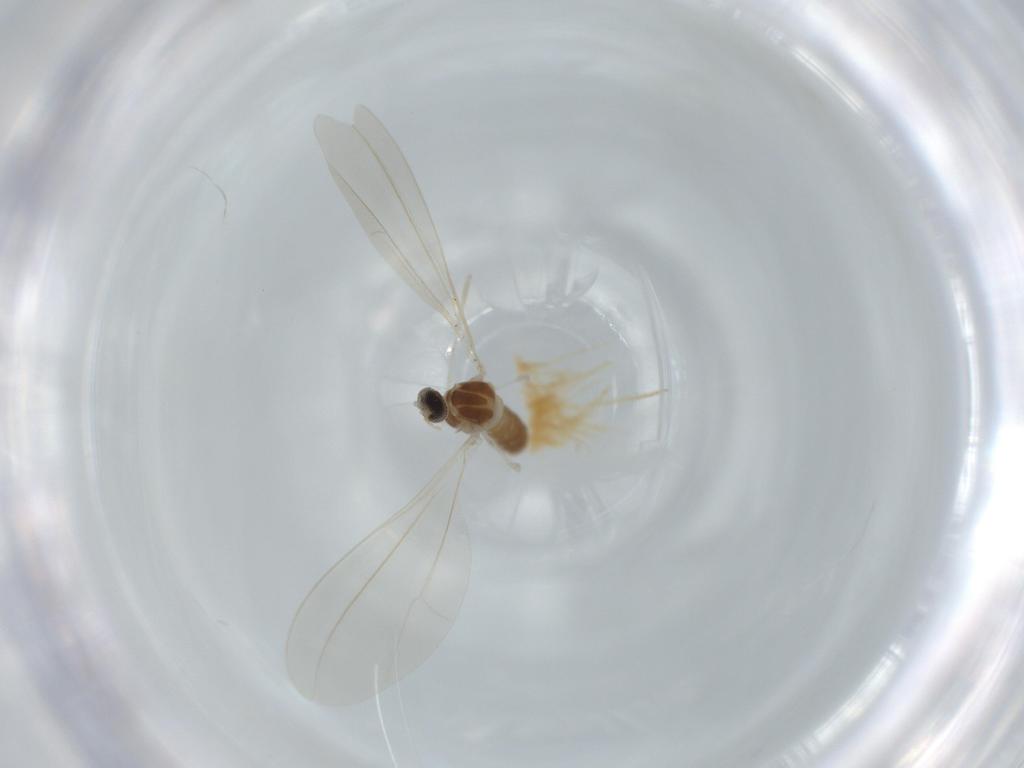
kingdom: Animalia
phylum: Arthropoda
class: Insecta
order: Diptera
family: Cecidomyiidae
